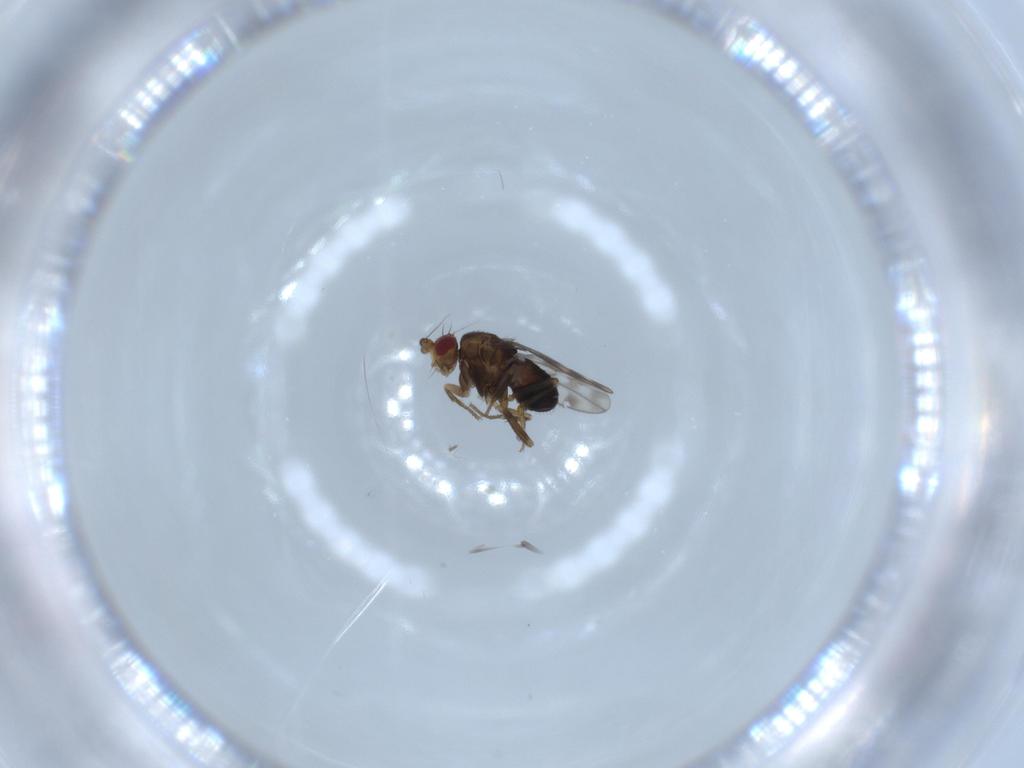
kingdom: Animalia
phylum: Arthropoda
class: Insecta
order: Diptera
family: Sphaeroceridae
